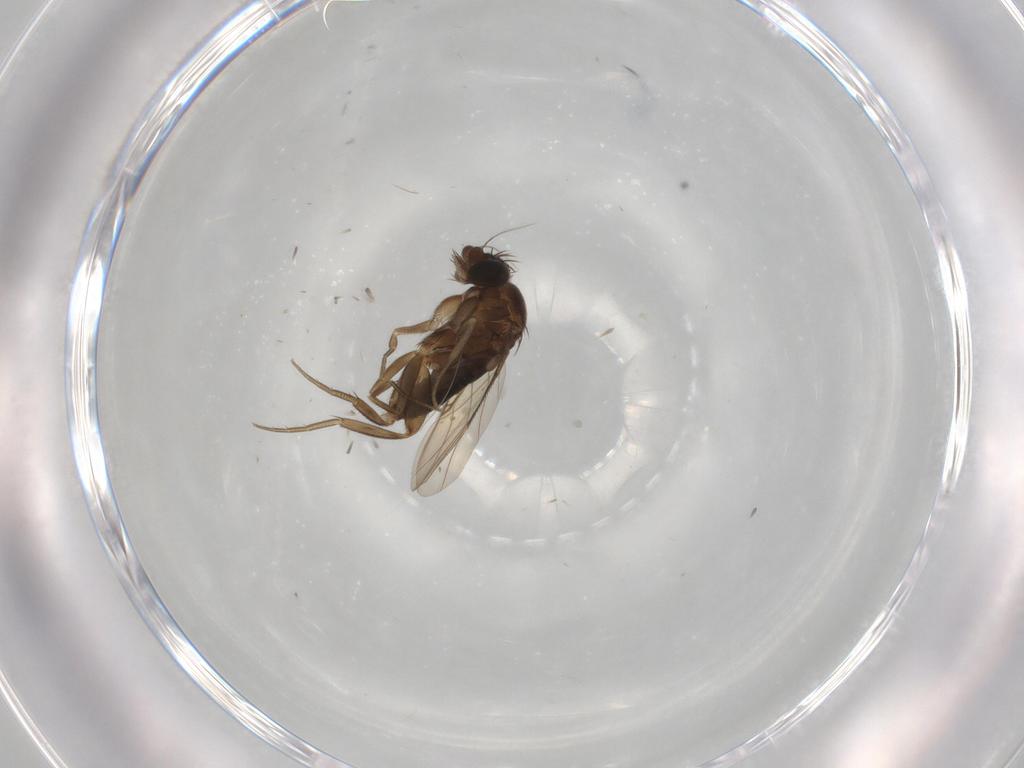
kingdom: Animalia
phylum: Arthropoda
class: Insecta
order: Diptera
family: Phoridae
